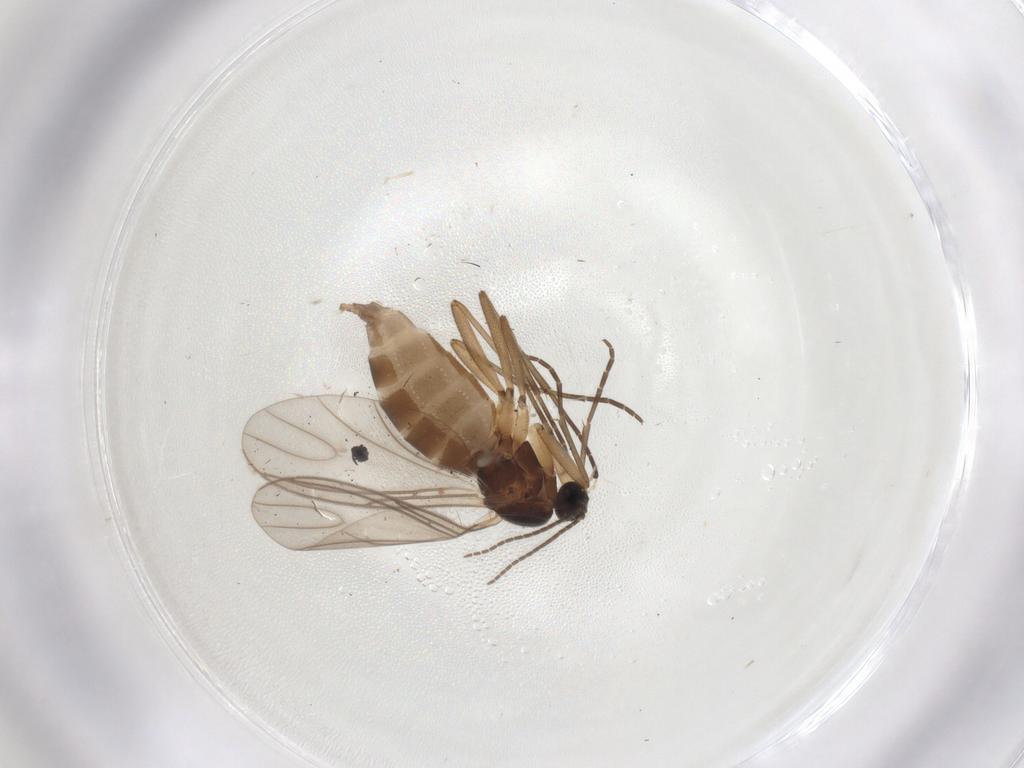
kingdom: Animalia
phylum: Arthropoda
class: Insecta
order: Diptera
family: Sciaridae
